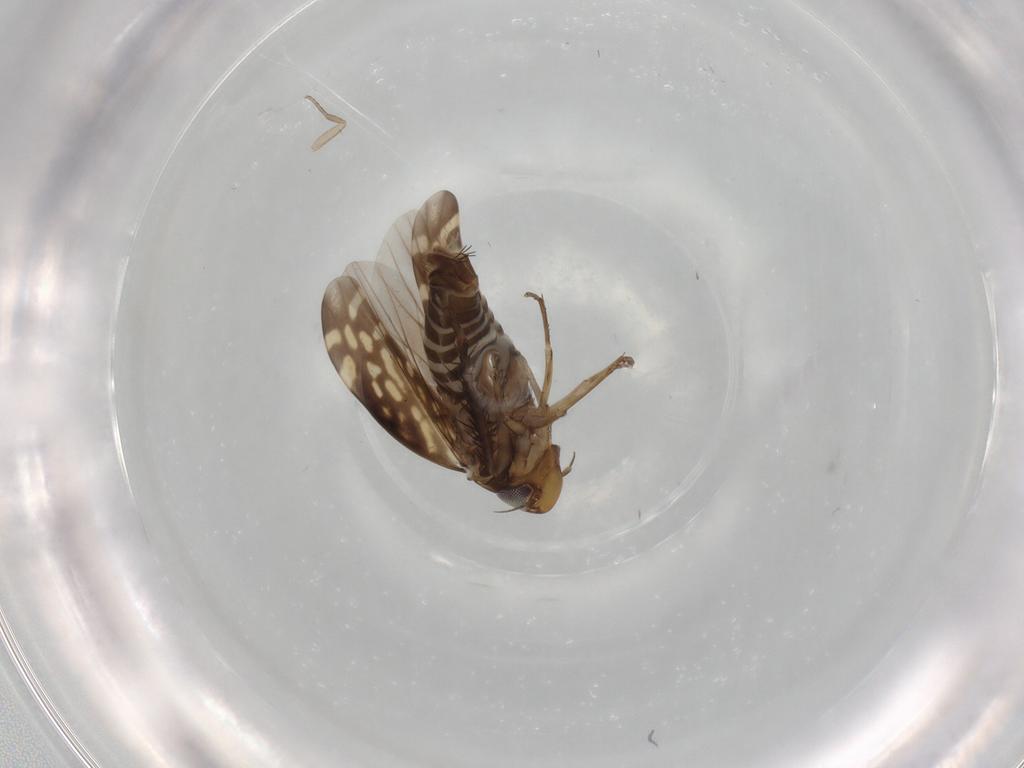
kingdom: Animalia
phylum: Arthropoda
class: Insecta
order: Hemiptera
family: Cicadellidae
